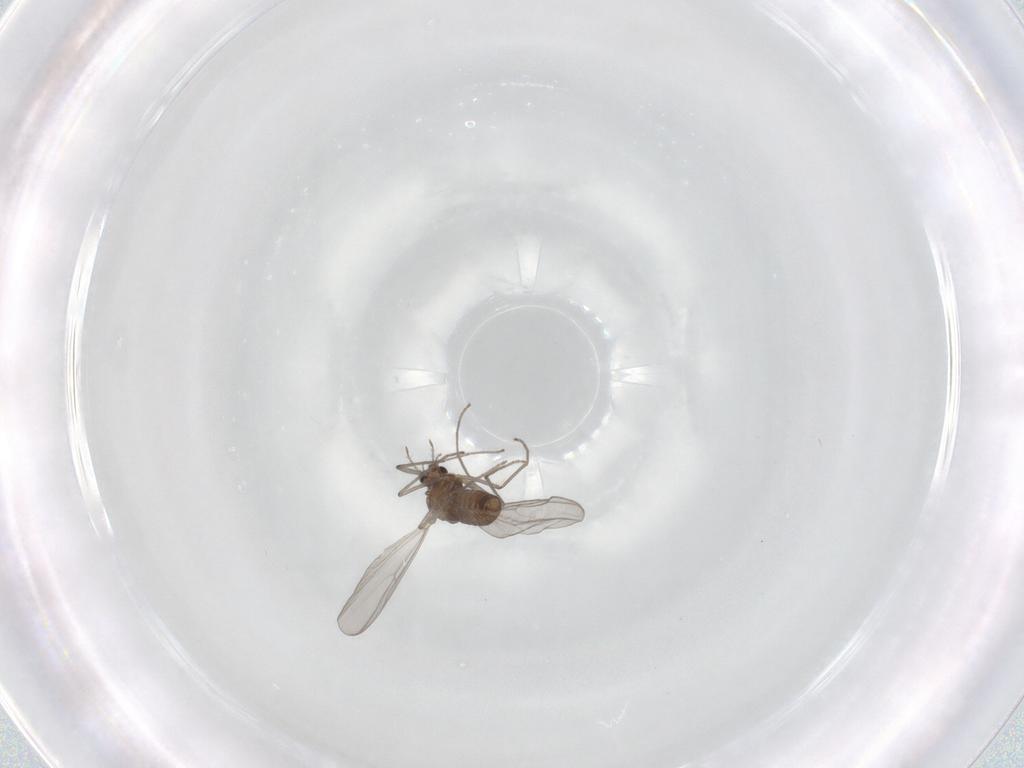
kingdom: Animalia
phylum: Arthropoda
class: Insecta
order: Diptera
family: Chironomidae
